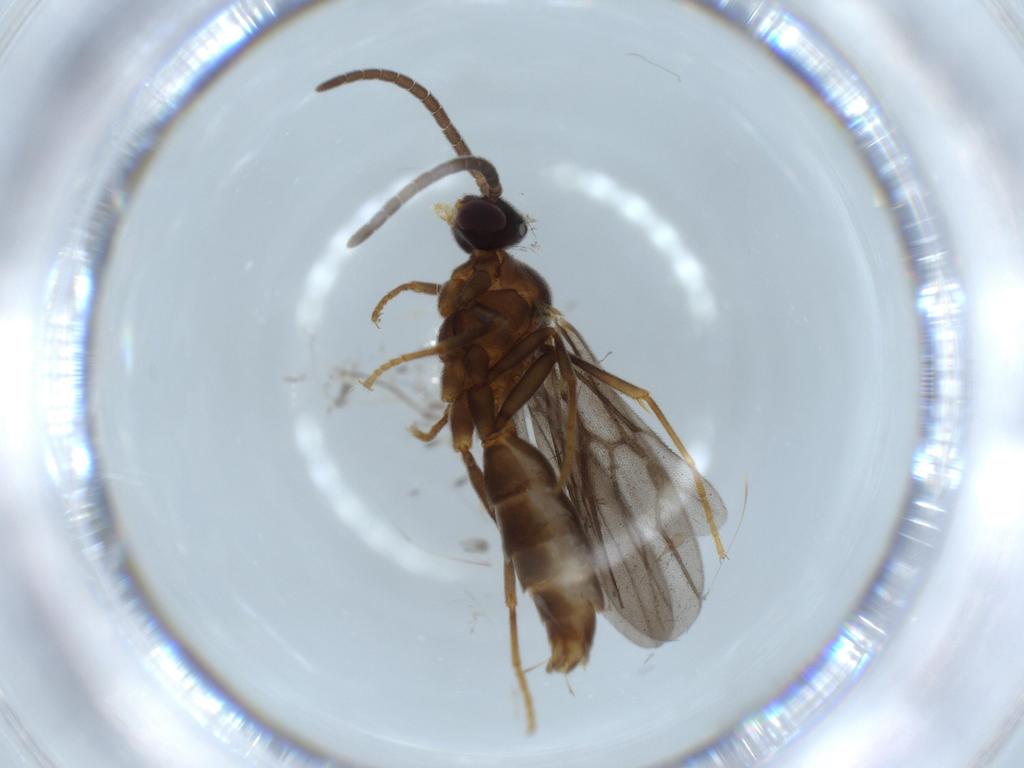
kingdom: Animalia
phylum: Arthropoda
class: Insecta
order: Hymenoptera
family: Formicidae
